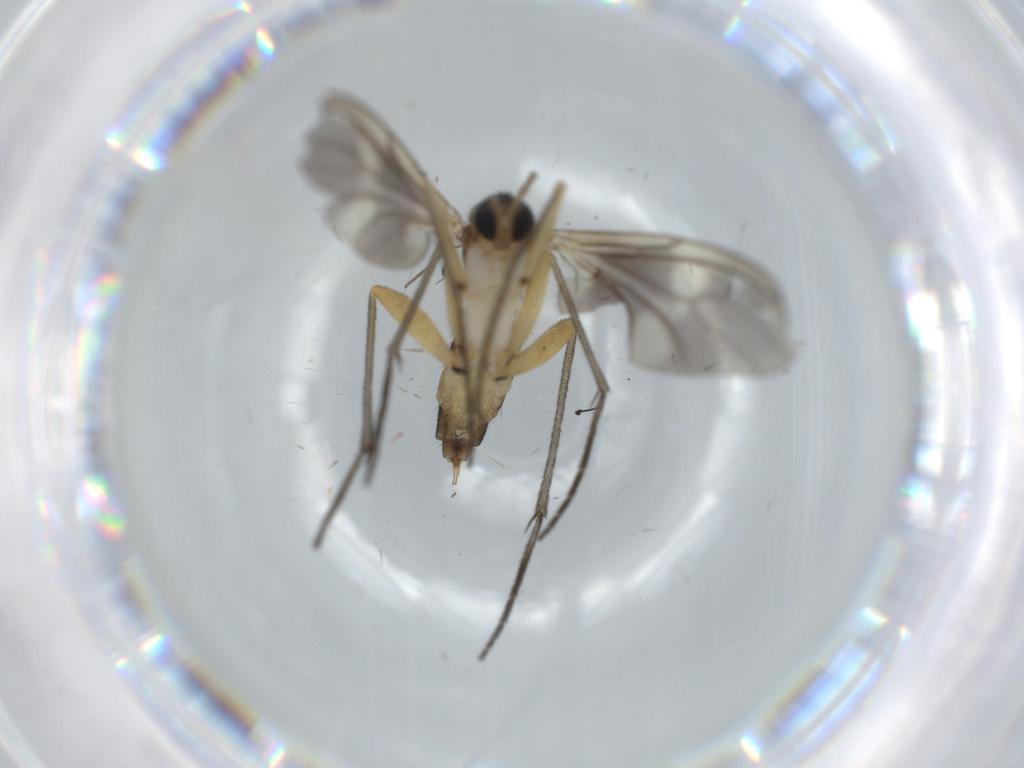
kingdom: Animalia
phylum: Arthropoda
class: Insecta
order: Diptera
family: Sciaridae
